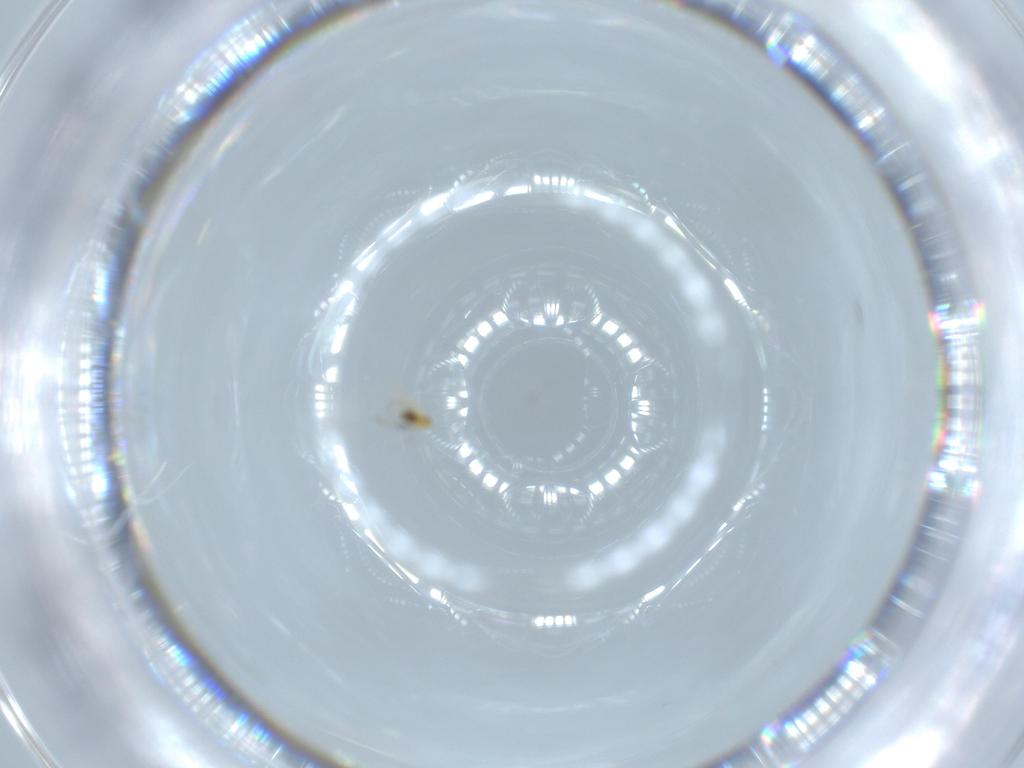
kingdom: Animalia
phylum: Arthropoda
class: Insecta
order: Hymenoptera
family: Trichogrammatidae
